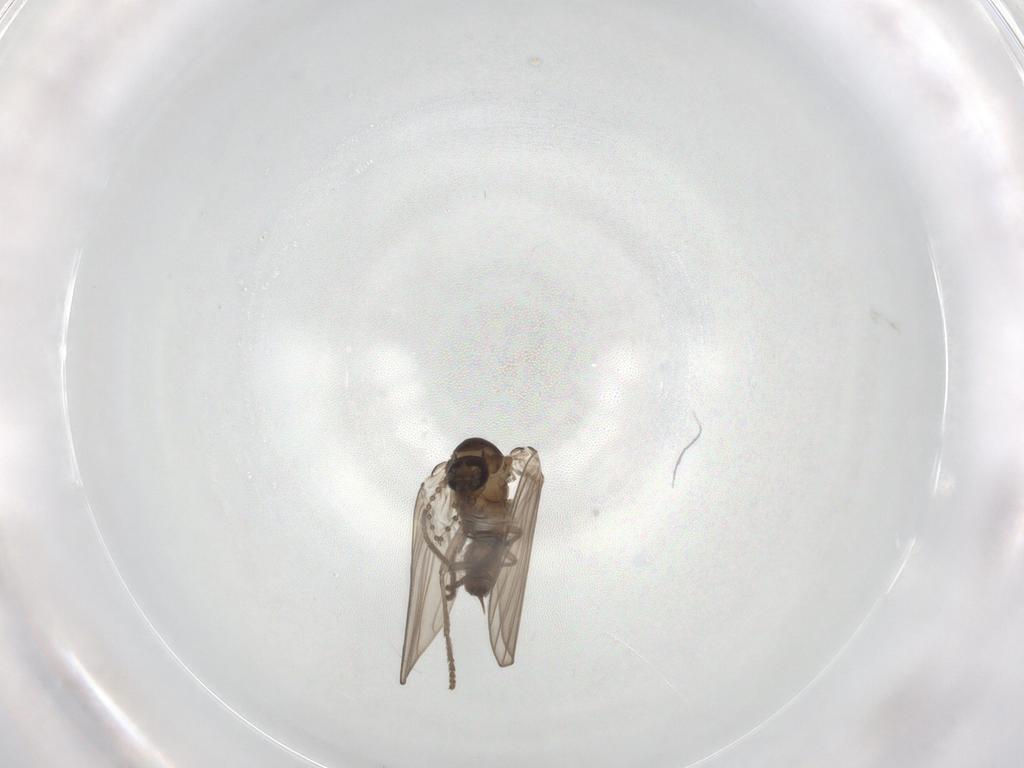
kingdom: Animalia
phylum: Arthropoda
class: Insecta
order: Diptera
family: Psychodidae
